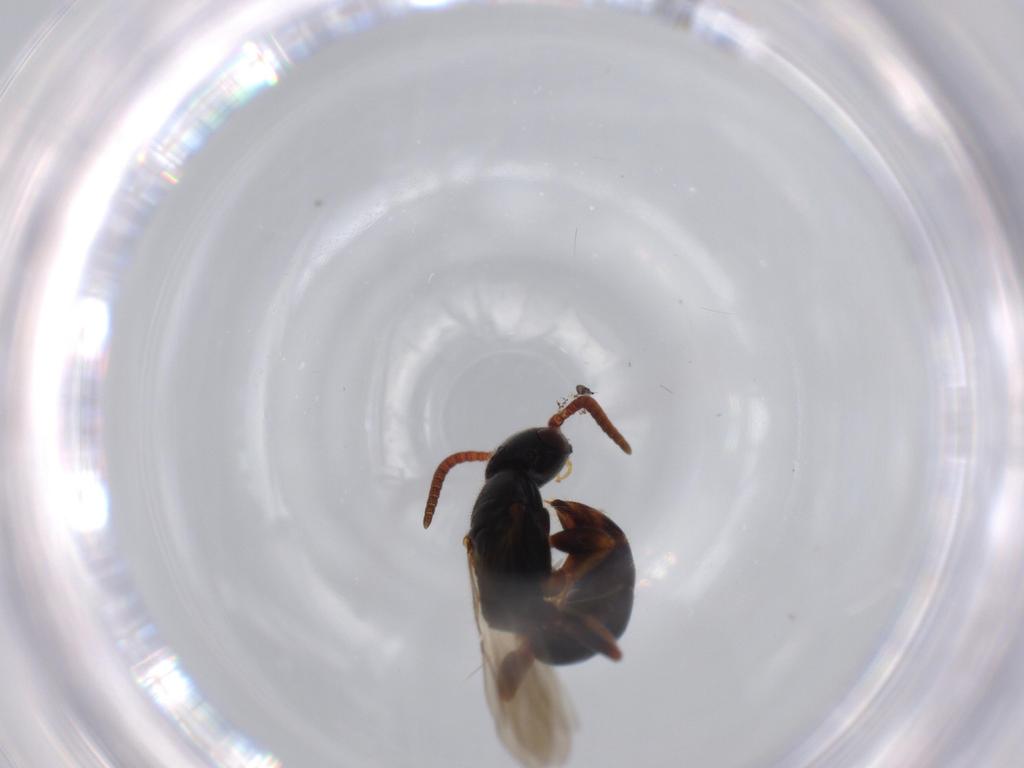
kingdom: Animalia
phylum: Arthropoda
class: Insecta
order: Hymenoptera
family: Bethylidae
